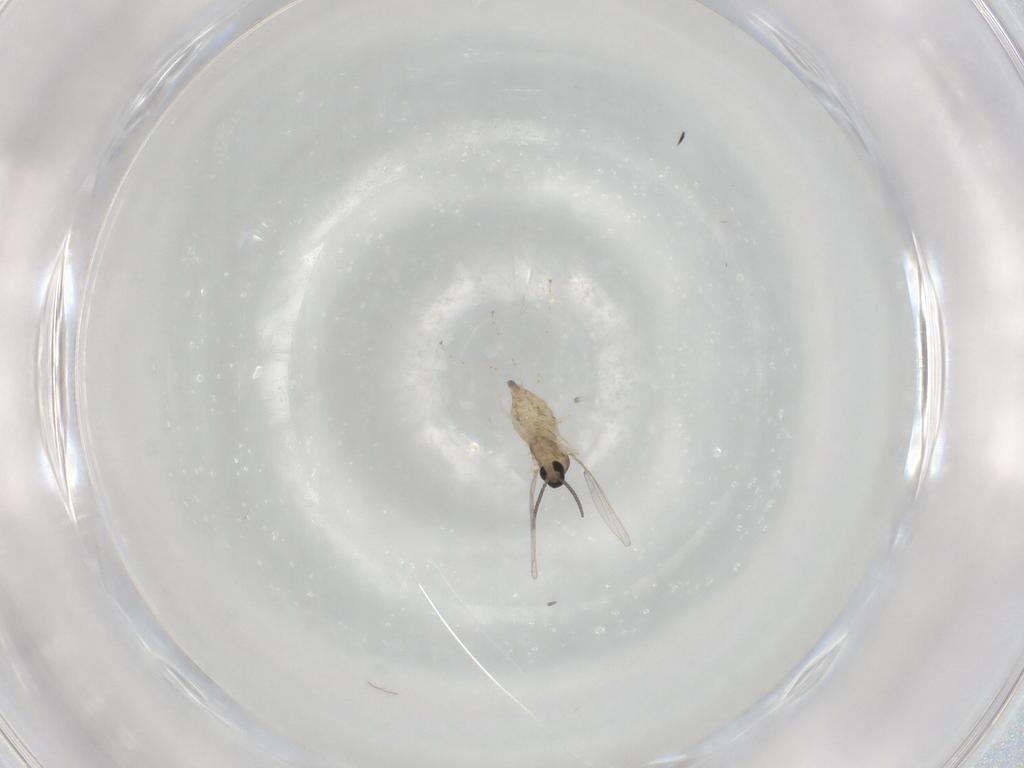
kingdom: Animalia
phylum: Arthropoda
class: Insecta
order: Diptera
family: Cecidomyiidae
